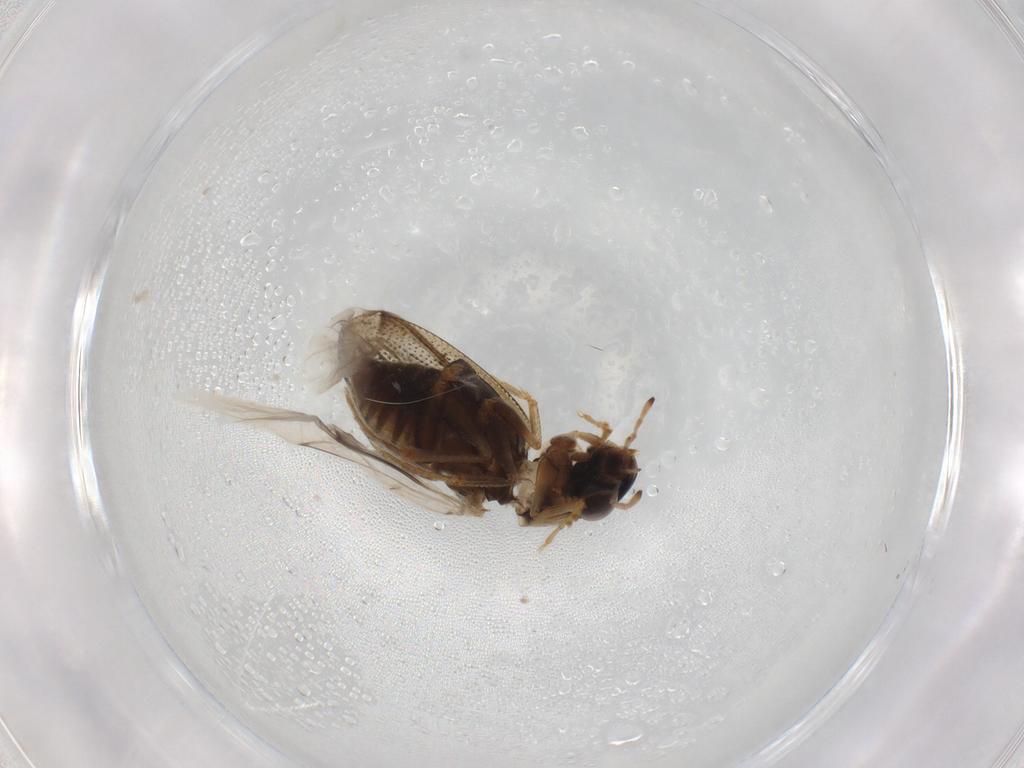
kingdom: Animalia
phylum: Arthropoda
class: Insecta
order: Coleoptera
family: Hydrophilidae
